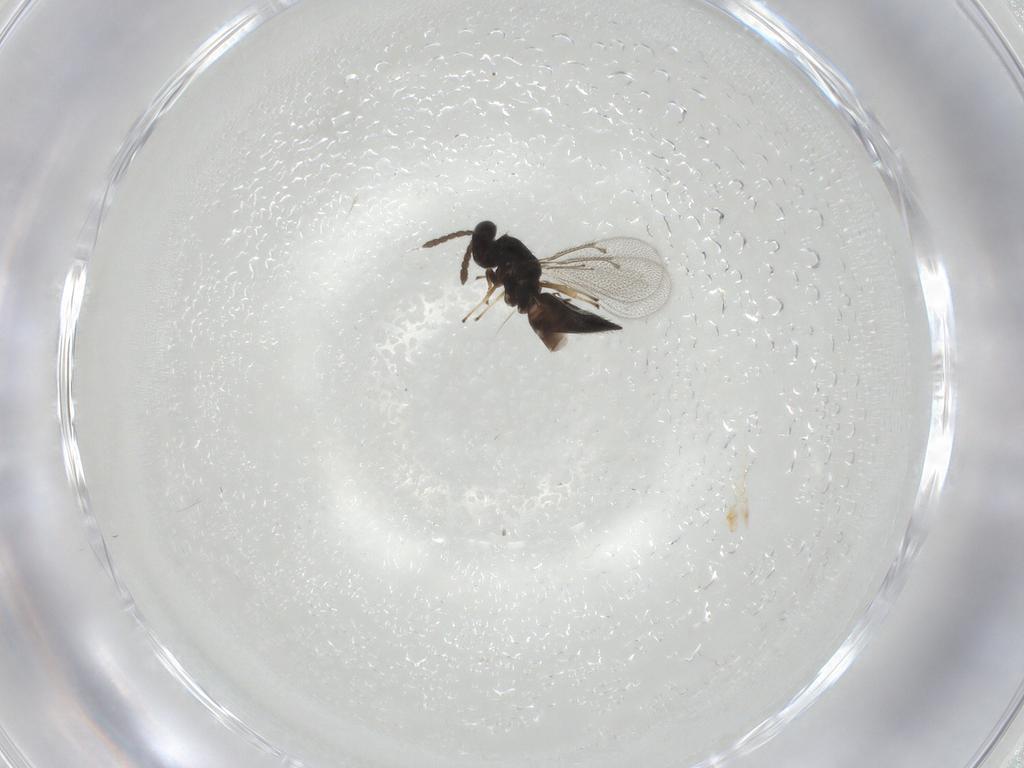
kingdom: Animalia
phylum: Arthropoda
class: Insecta
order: Hymenoptera
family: Eulophidae
